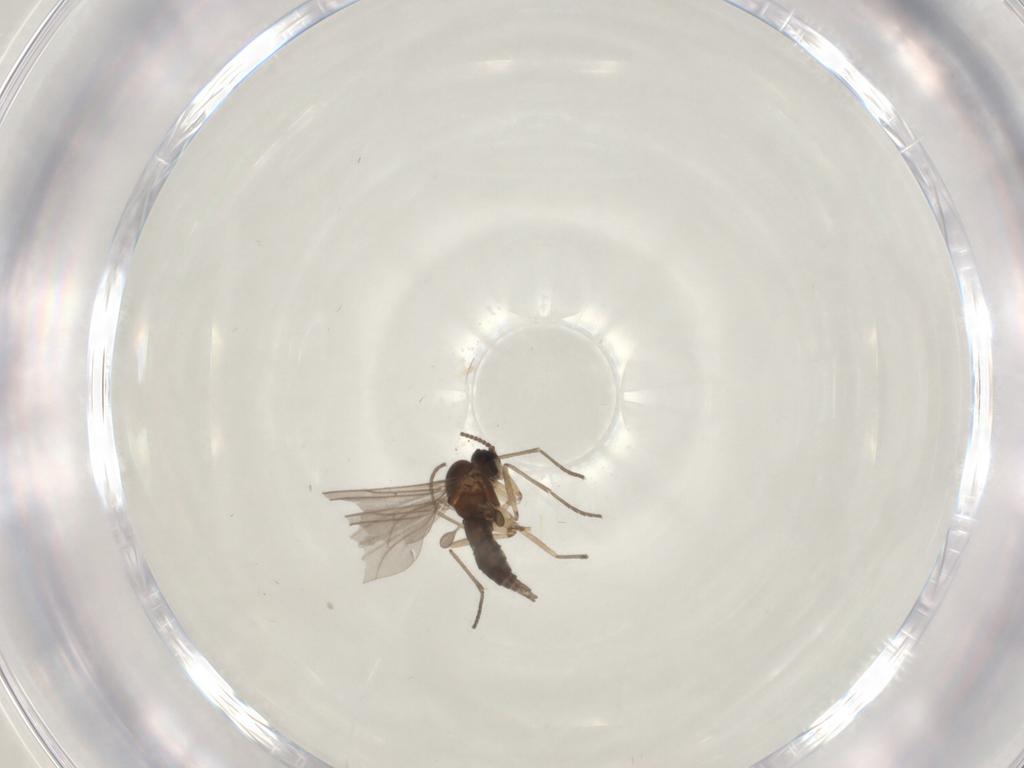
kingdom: Animalia
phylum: Arthropoda
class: Insecta
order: Diptera
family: Sciaridae
